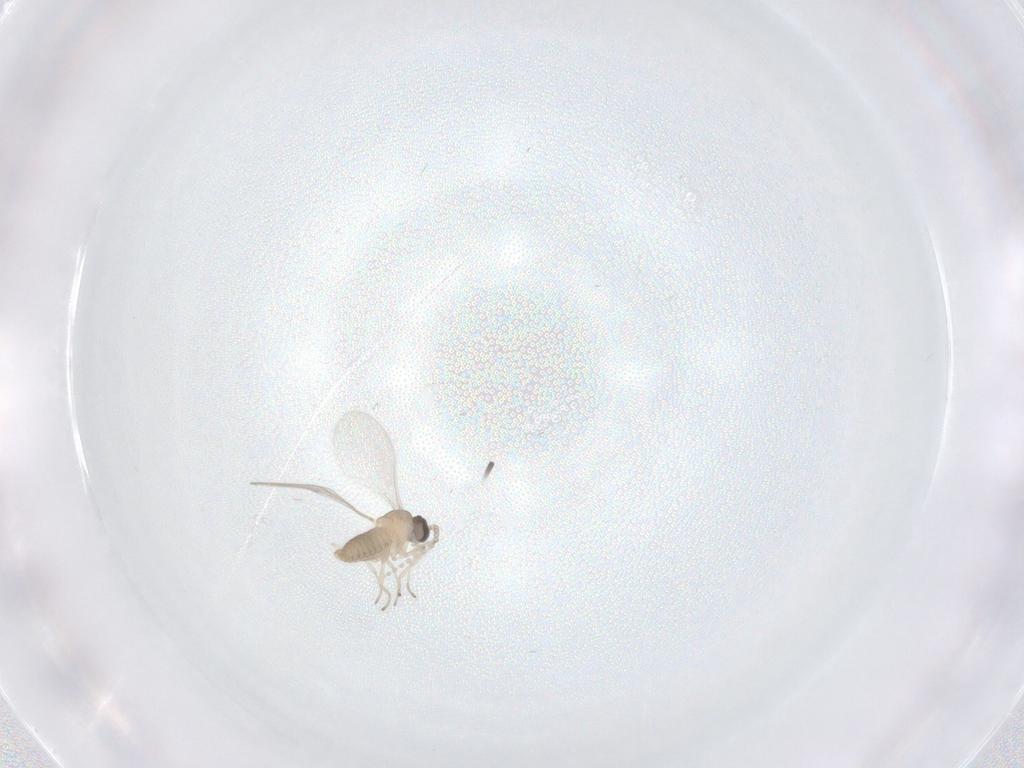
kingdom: Animalia
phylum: Arthropoda
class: Insecta
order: Diptera
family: Cecidomyiidae
